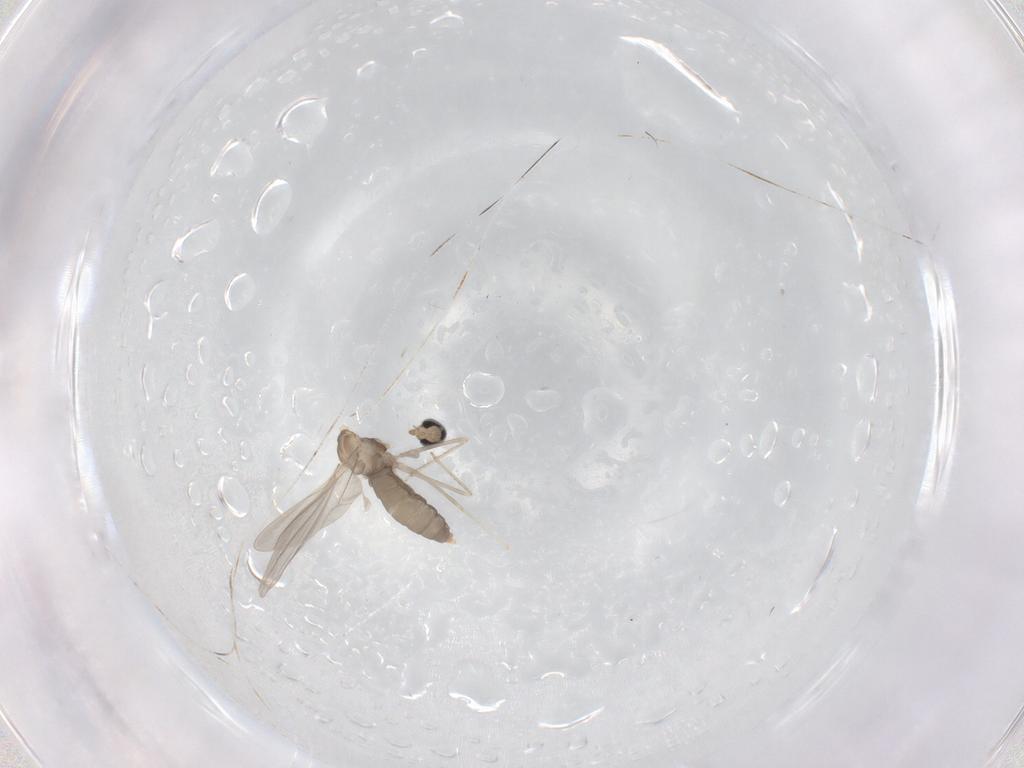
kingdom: Animalia
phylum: Arthropoda
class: Insecta
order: Diptera
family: Cecidomyiidae
